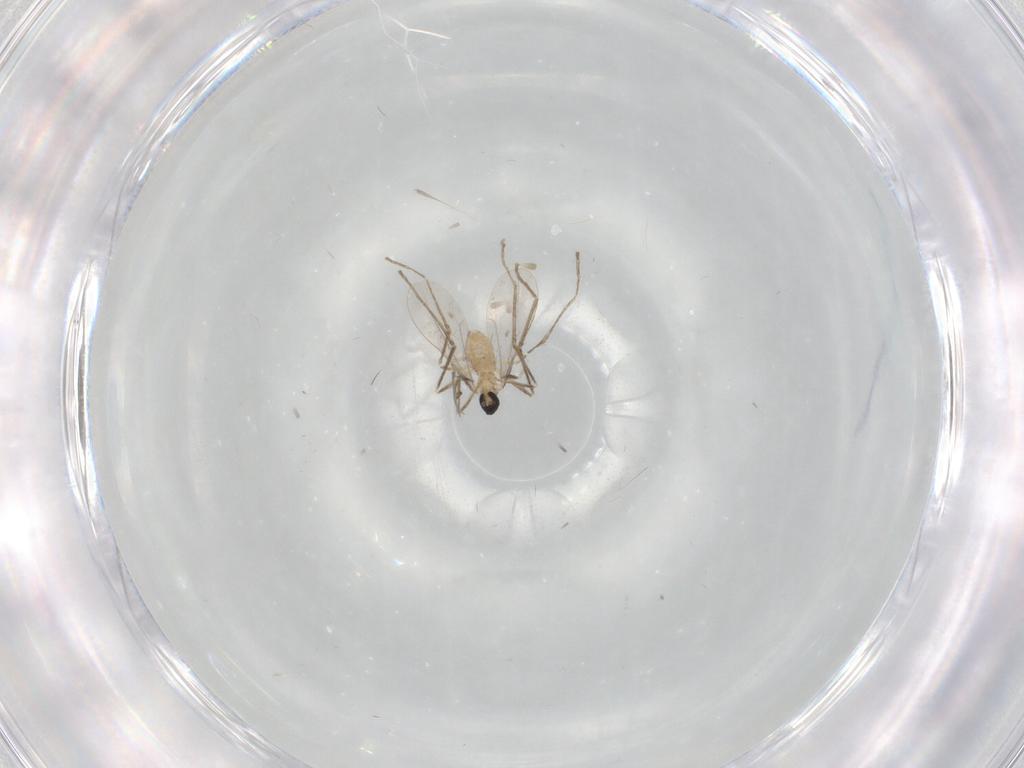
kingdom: Animalia
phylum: Arthropoda
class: Insecta
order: Diptera
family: Cecidomyiidae
